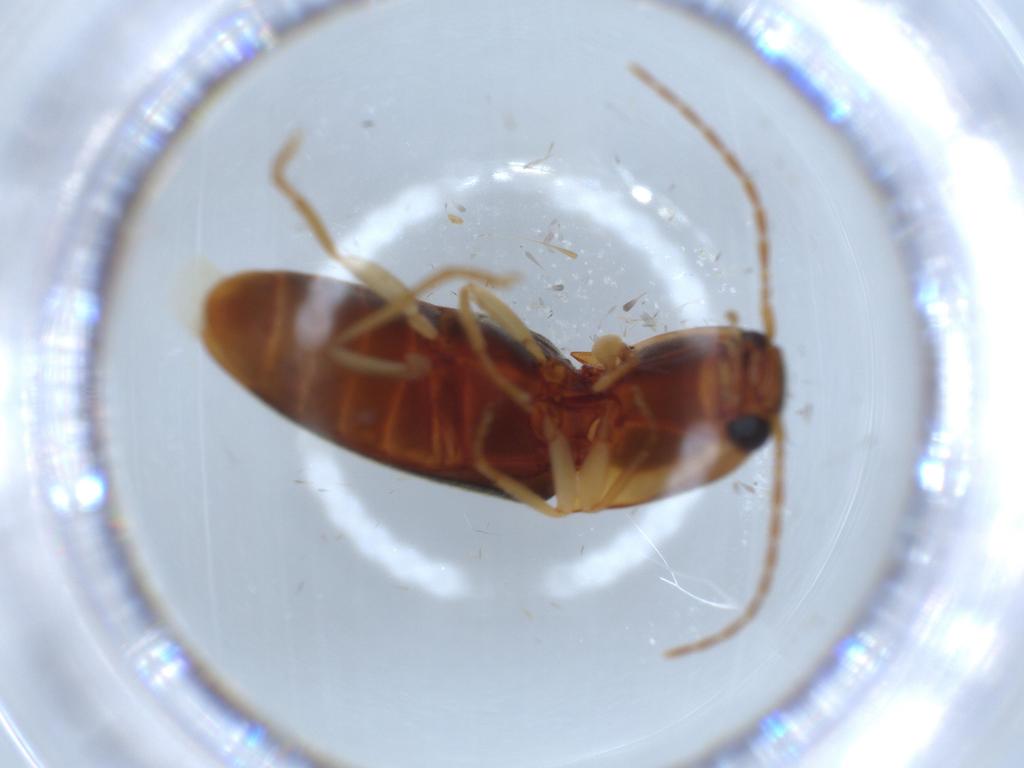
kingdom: Animalia
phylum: Arthropoda
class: Insecta
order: Coleoptera
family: Elateridae
